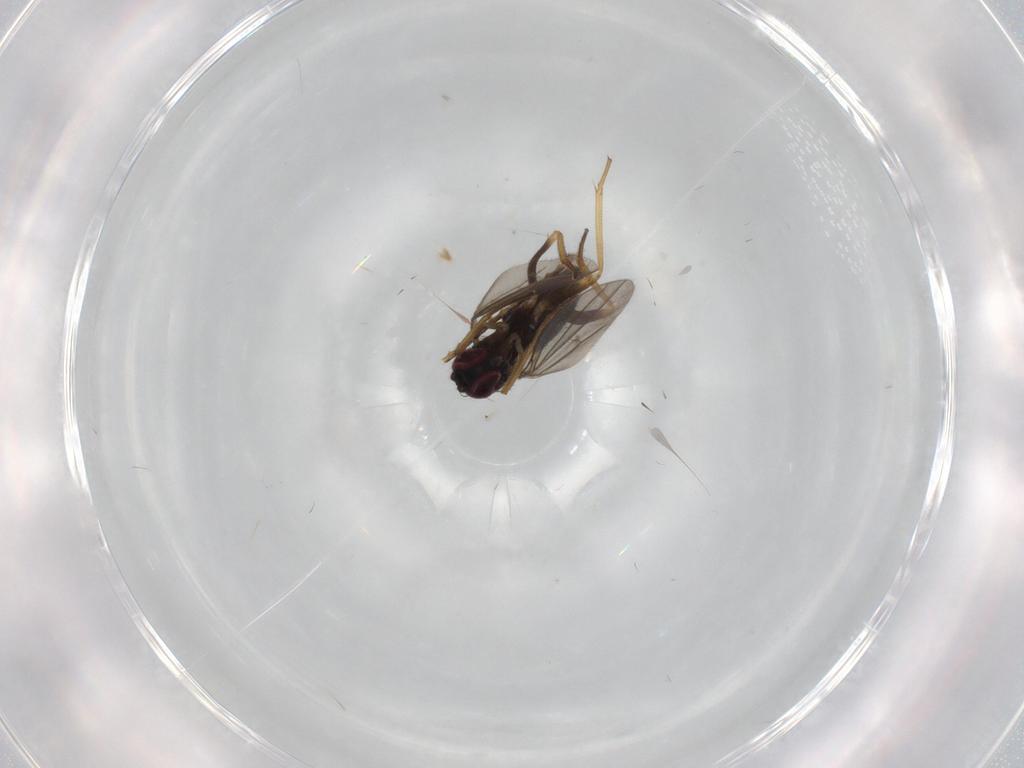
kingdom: Animalia
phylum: Arthropoda
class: Insecta
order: Diptera
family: Dolichopodidae
